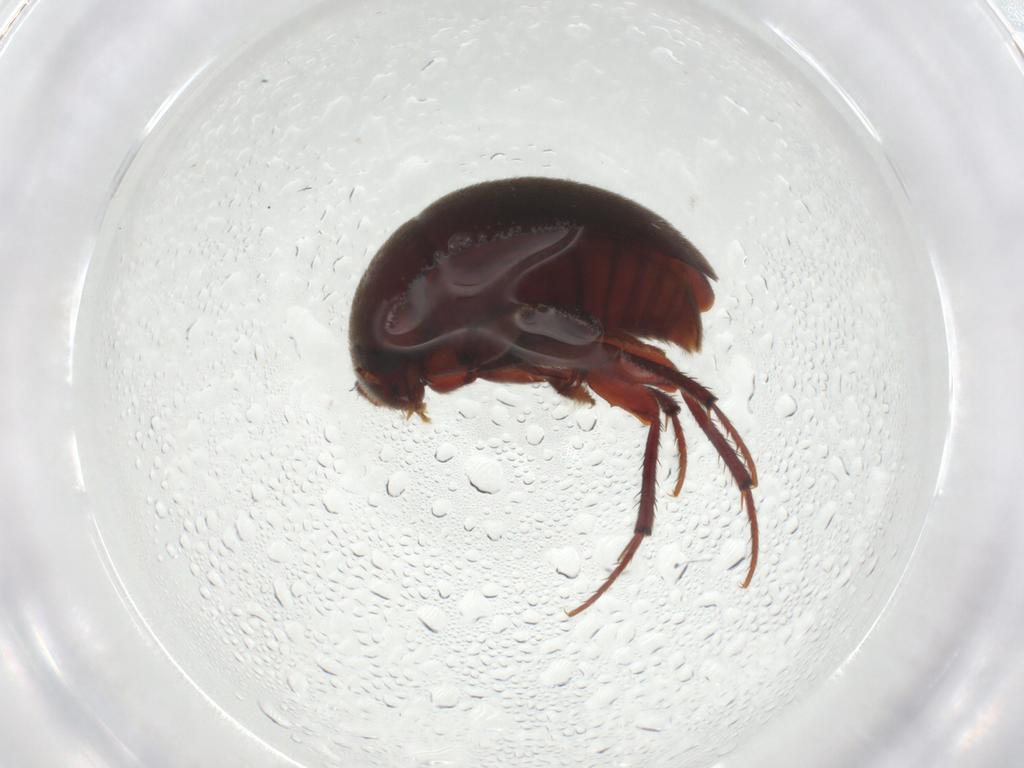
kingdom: Animalia
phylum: Arthropoda
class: Insecta
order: Coleoptera
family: Leiodidae
